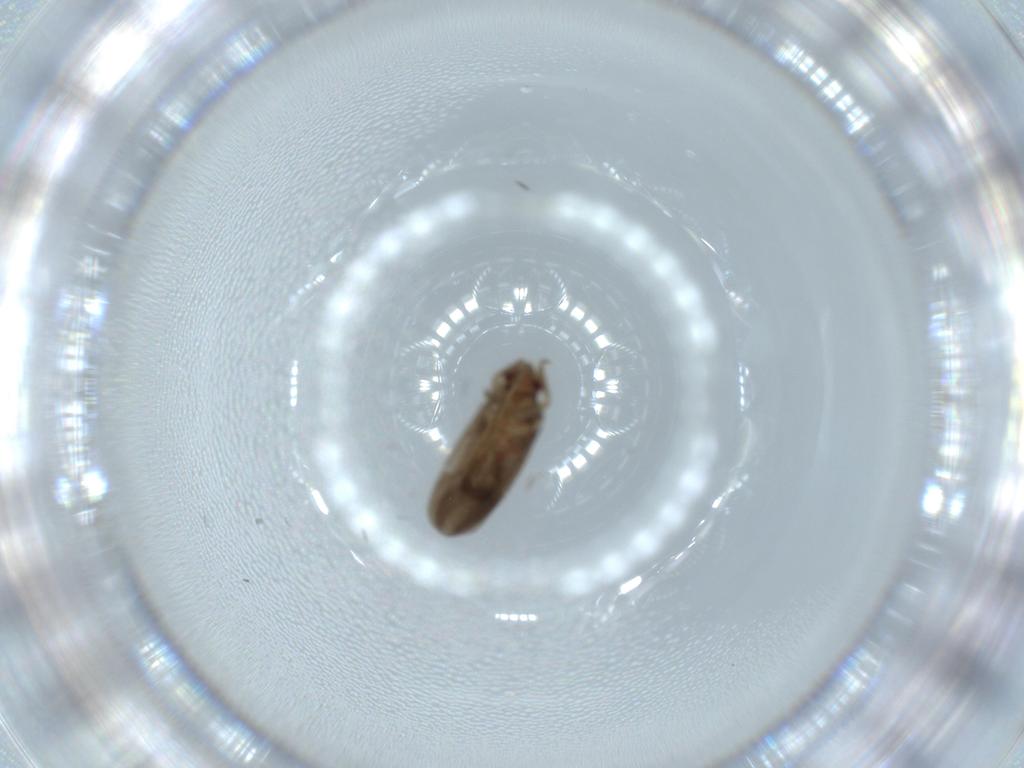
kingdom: Animalia
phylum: Arthropoda
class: Insecta
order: Hemiptera
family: Ceratocombidae
